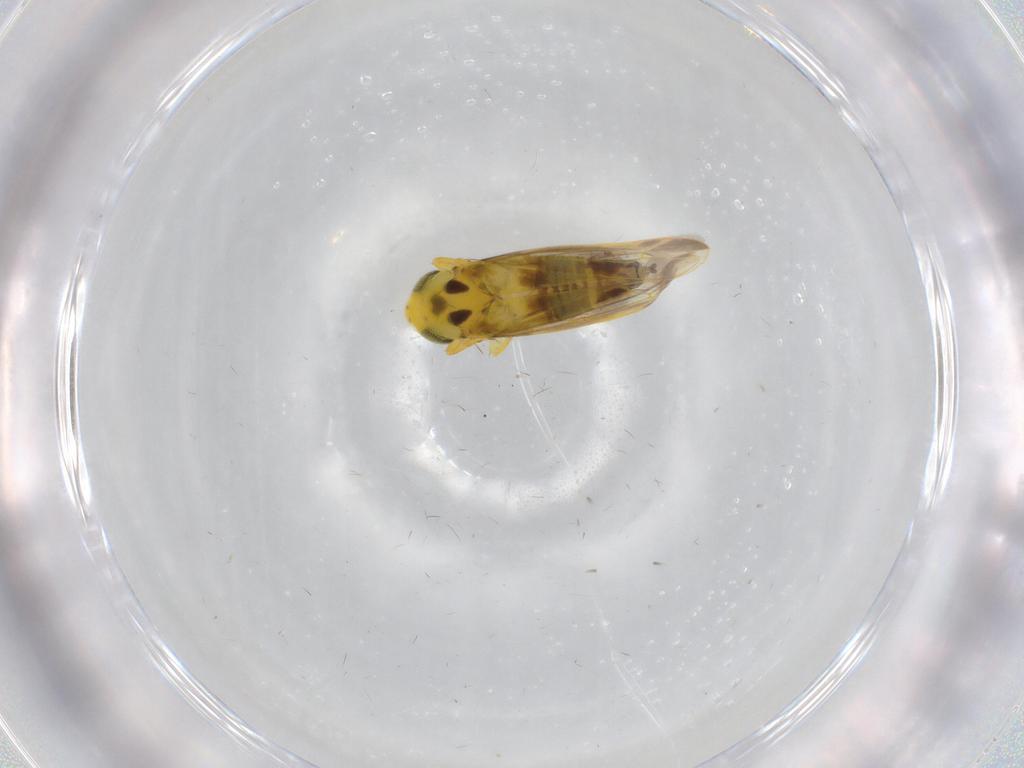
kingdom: Animalia
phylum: Arthropoda
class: Insecta
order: Hemiptera
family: Cicadellidae
